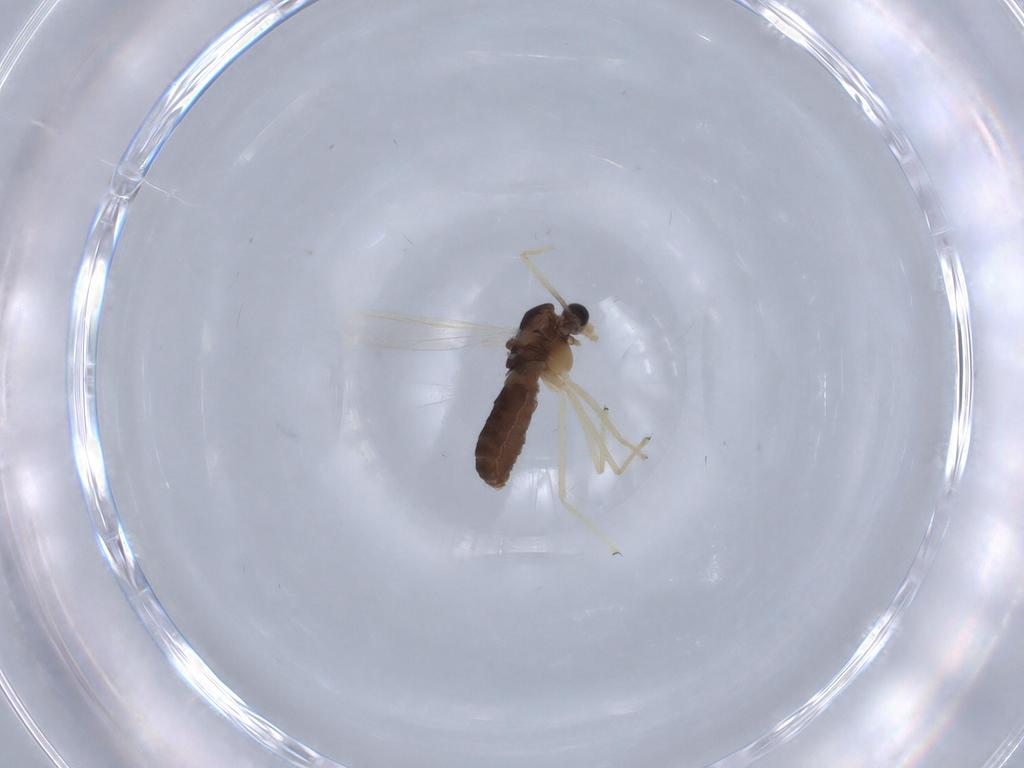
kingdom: Animalia
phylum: Arthropoda
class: Insecta
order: Diptera
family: Chironomidae
